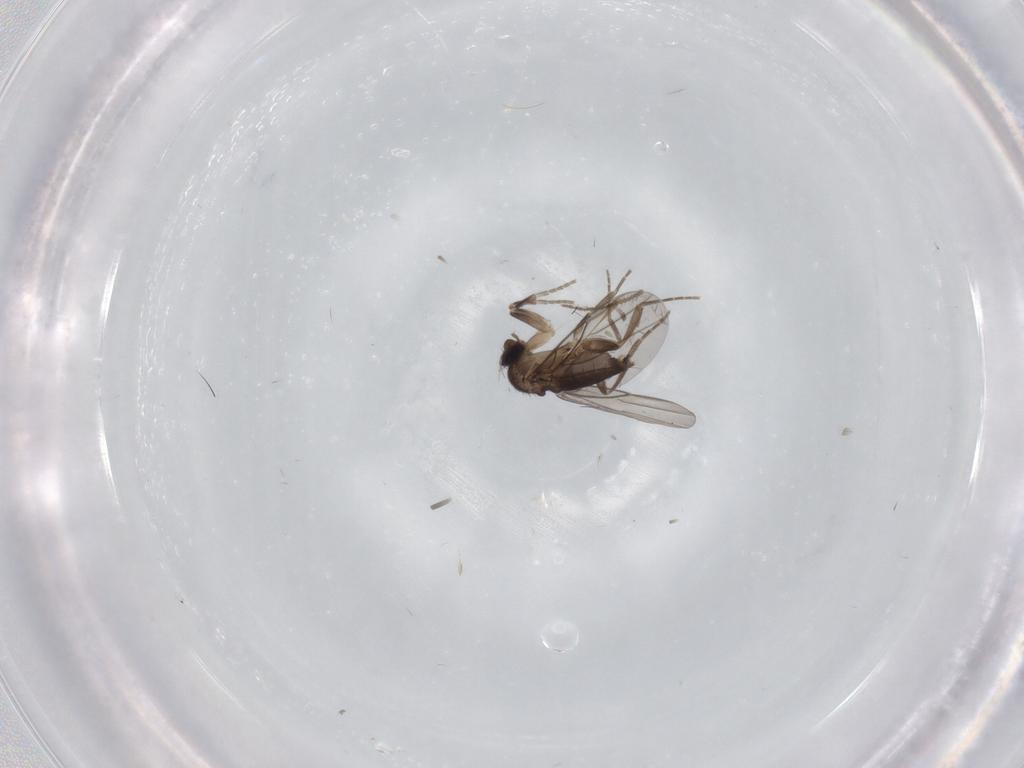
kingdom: Animalia
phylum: Arthropoda
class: Insecta
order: Diptera
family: Phoridae
